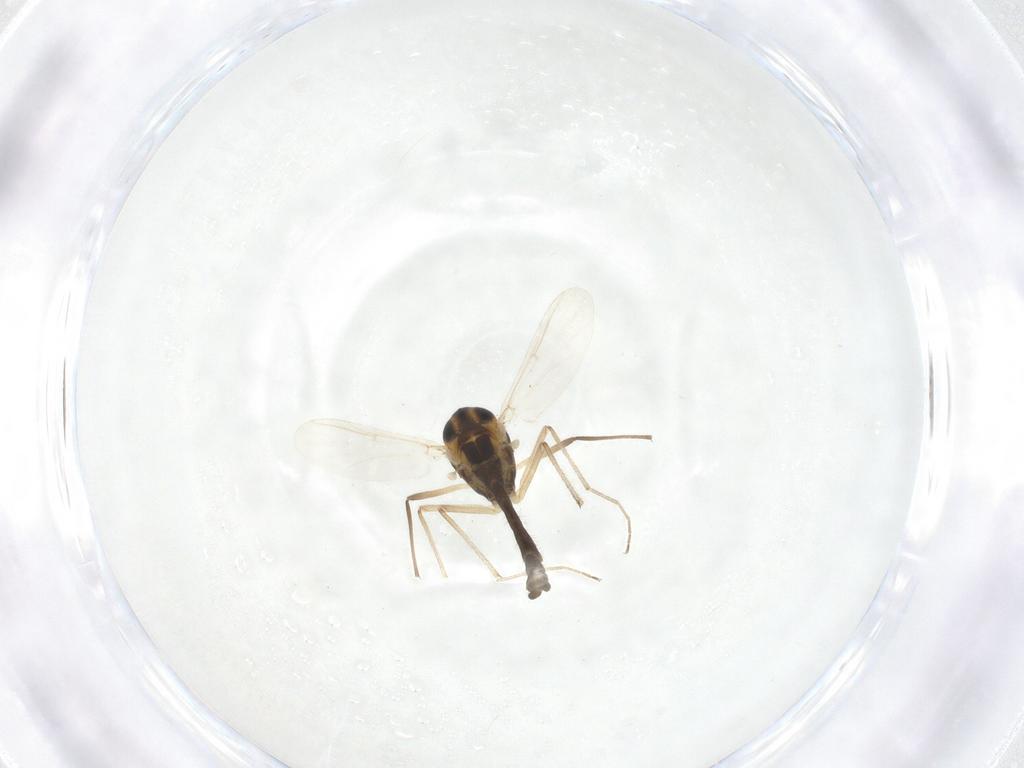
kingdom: Animalia
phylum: Arthropoda
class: Insecta
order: Diptera
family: Chironomidae
